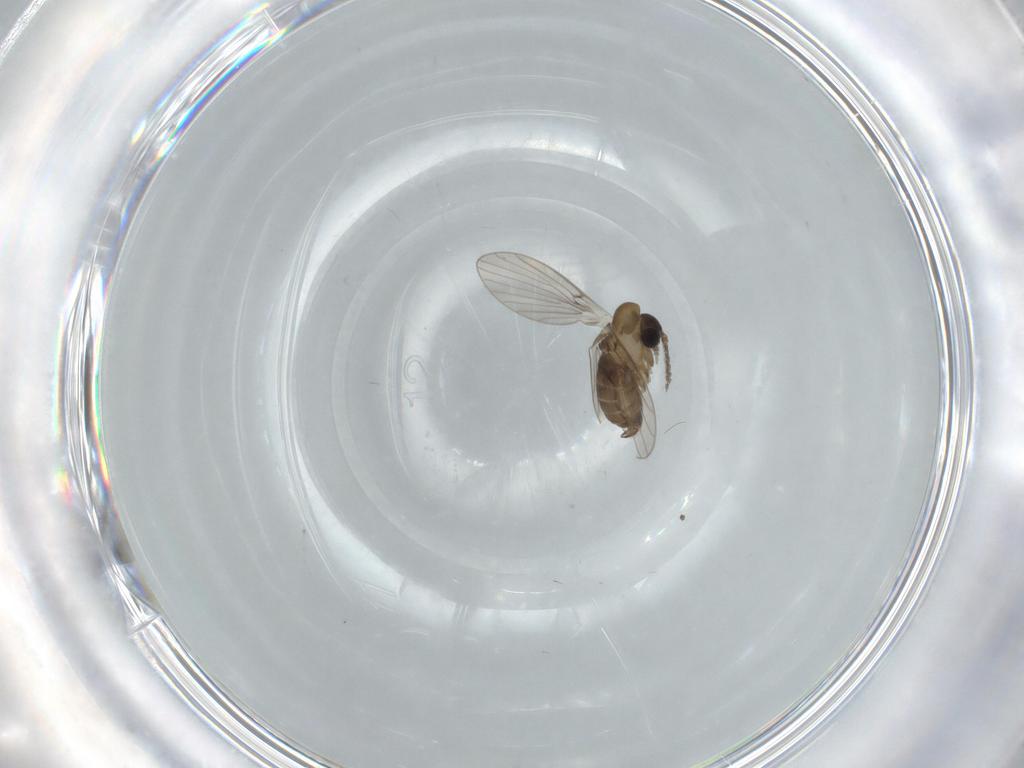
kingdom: Animalia
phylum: Arthropoda
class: Insecta
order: Diptera
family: Psychodidae
